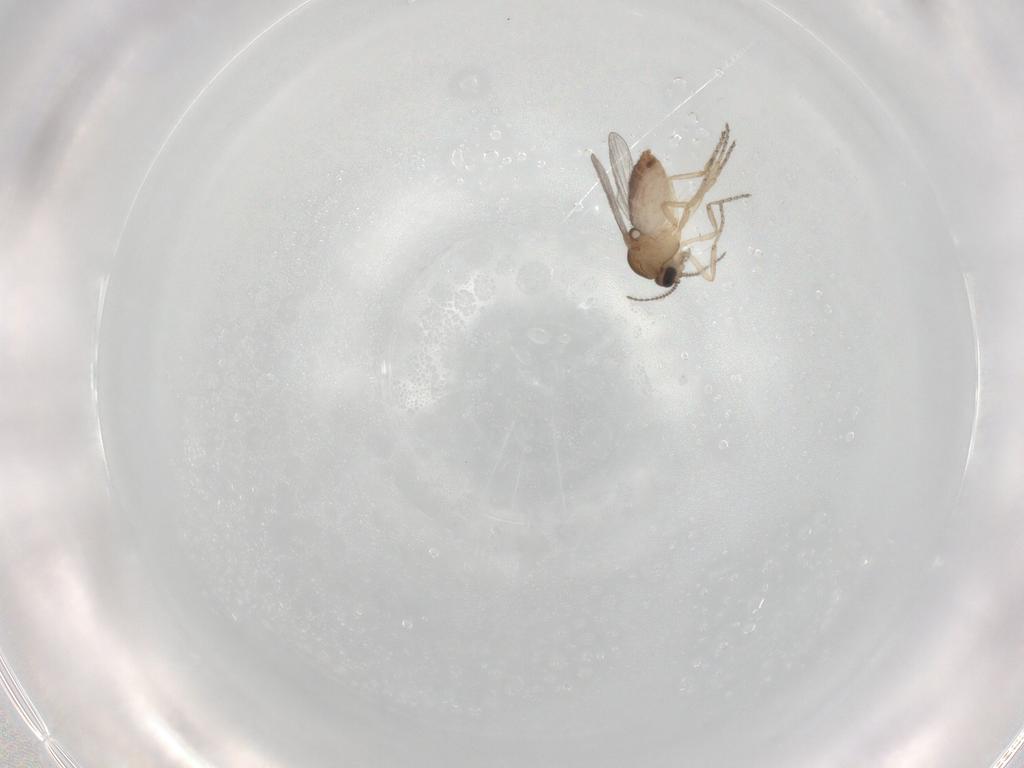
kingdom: Animalia
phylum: Arthropoda
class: Insecta
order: Diptera
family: Ceratopogonidae
